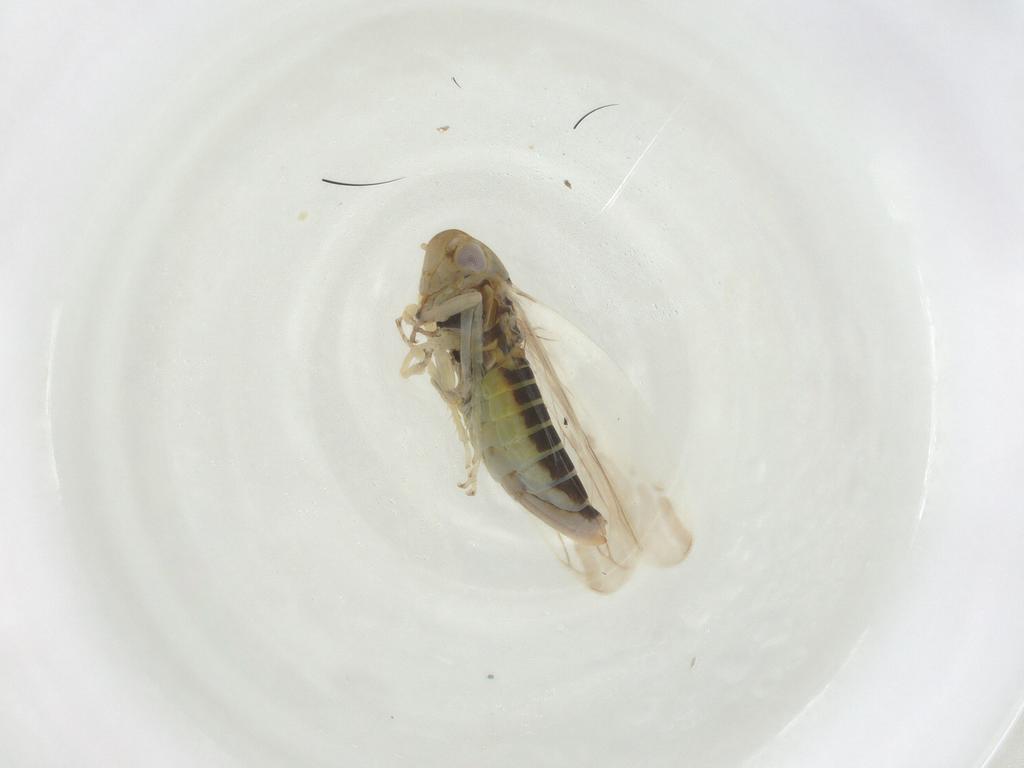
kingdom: Animalia
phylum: Arthropoda
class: Insecta
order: Hemiptera
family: Cicadellidae
